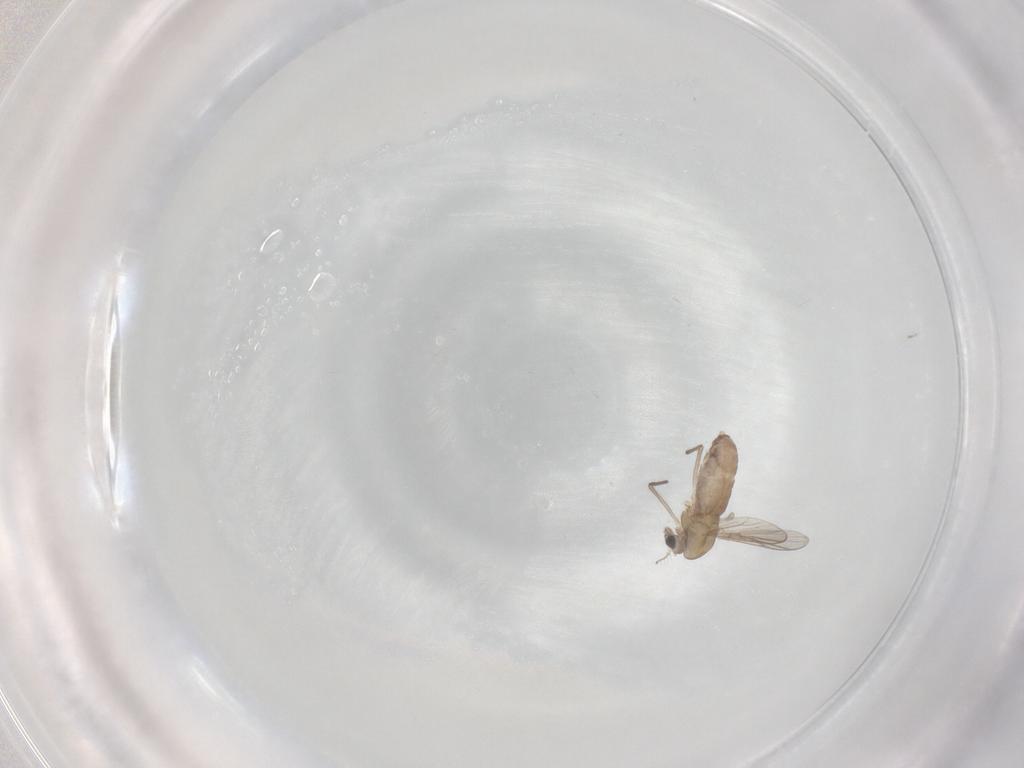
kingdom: Animalia
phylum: Arthropoda
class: Insecta
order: Diptera
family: Chironomidae
